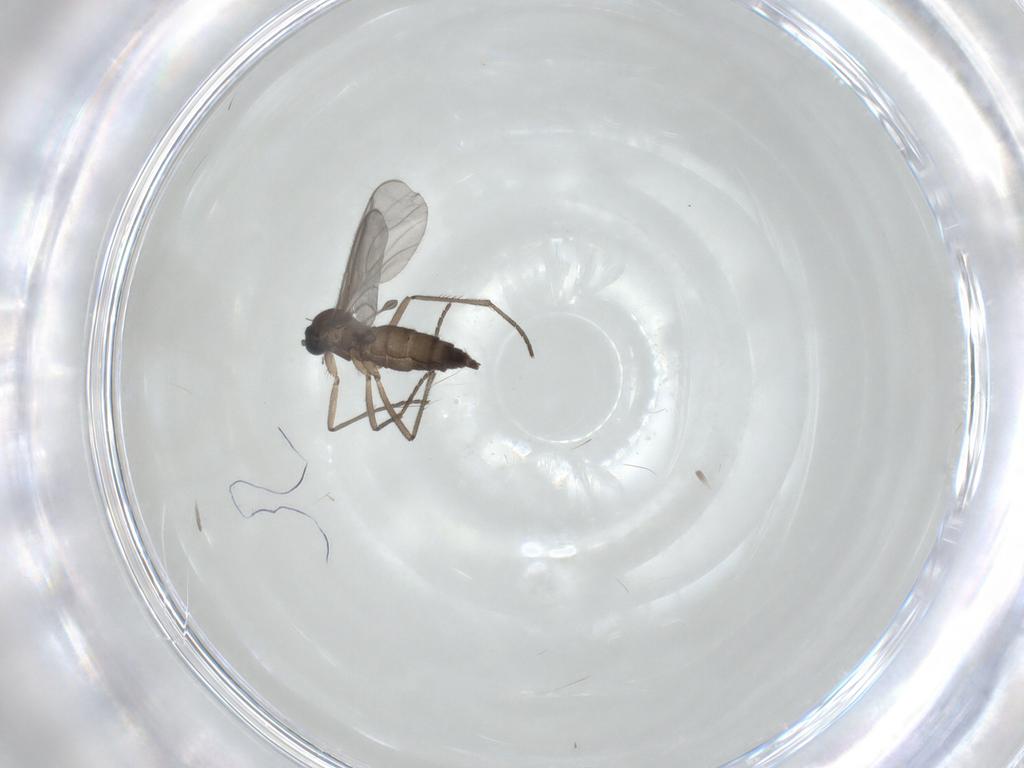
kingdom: Animalia
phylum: Arthropoda
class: Insecta
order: Diptera
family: Sciaridae
